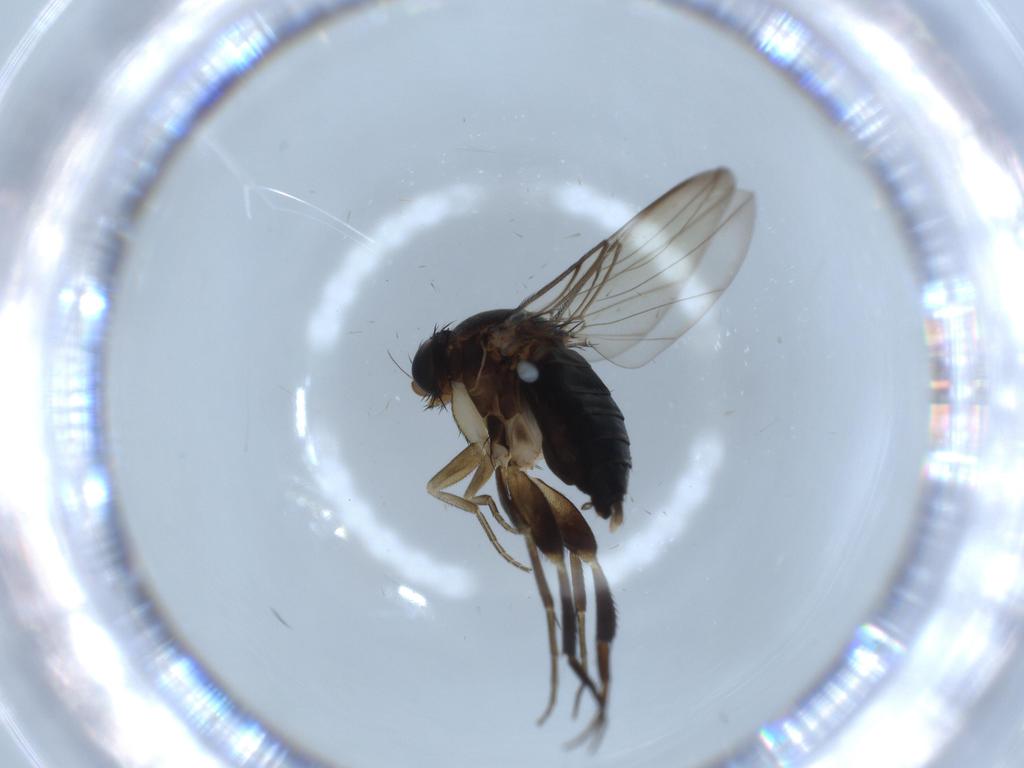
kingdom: Animalia
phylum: Arthropoda
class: Insecta
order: Diptera
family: Phoridae
